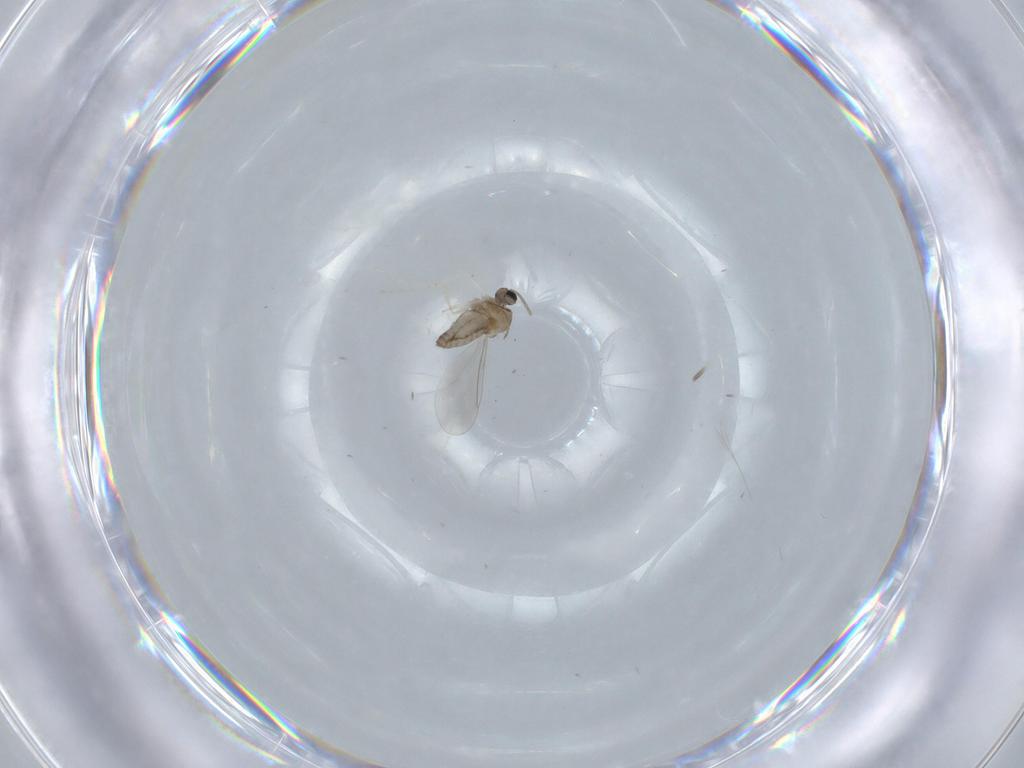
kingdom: Animalia
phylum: Arthropoda
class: Insecta
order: Diptera
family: Cecidomyiidae
